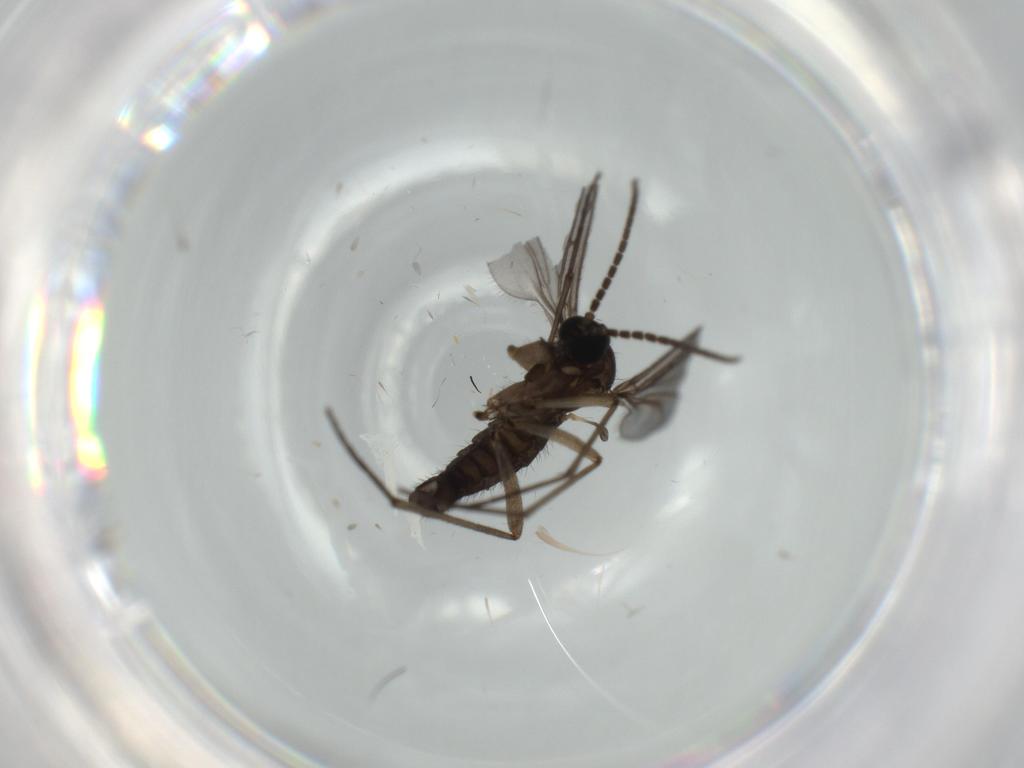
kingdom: Animalia
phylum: Arthropoda
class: Insecta
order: Diptera
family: Sciaridae
